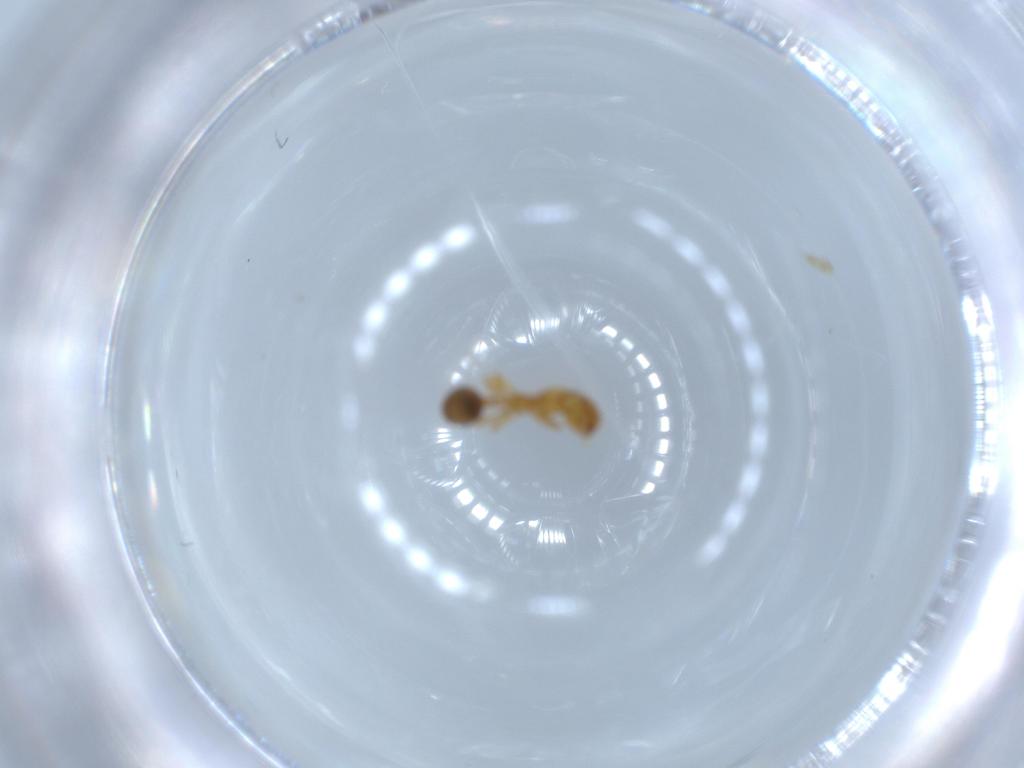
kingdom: Animalia
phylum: Arthropoda
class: Insecta
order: Hymenoptera
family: Formicidae
